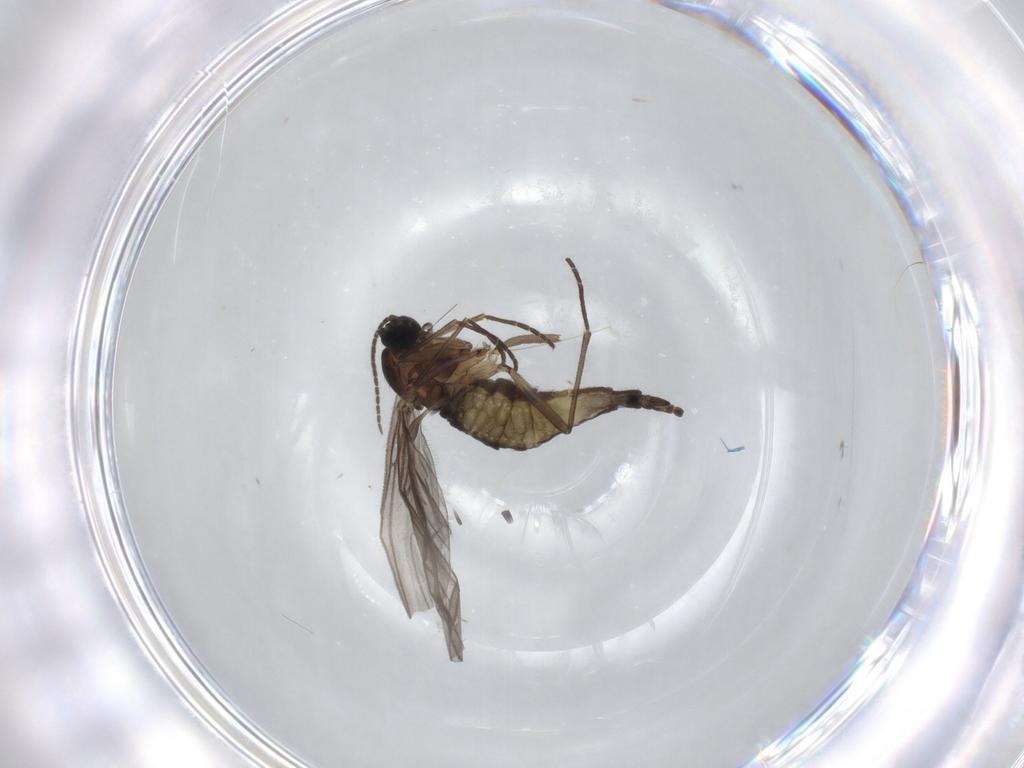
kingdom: Animalia
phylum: Arthropoda
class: Insecta
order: Diptera
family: Sciaridae
